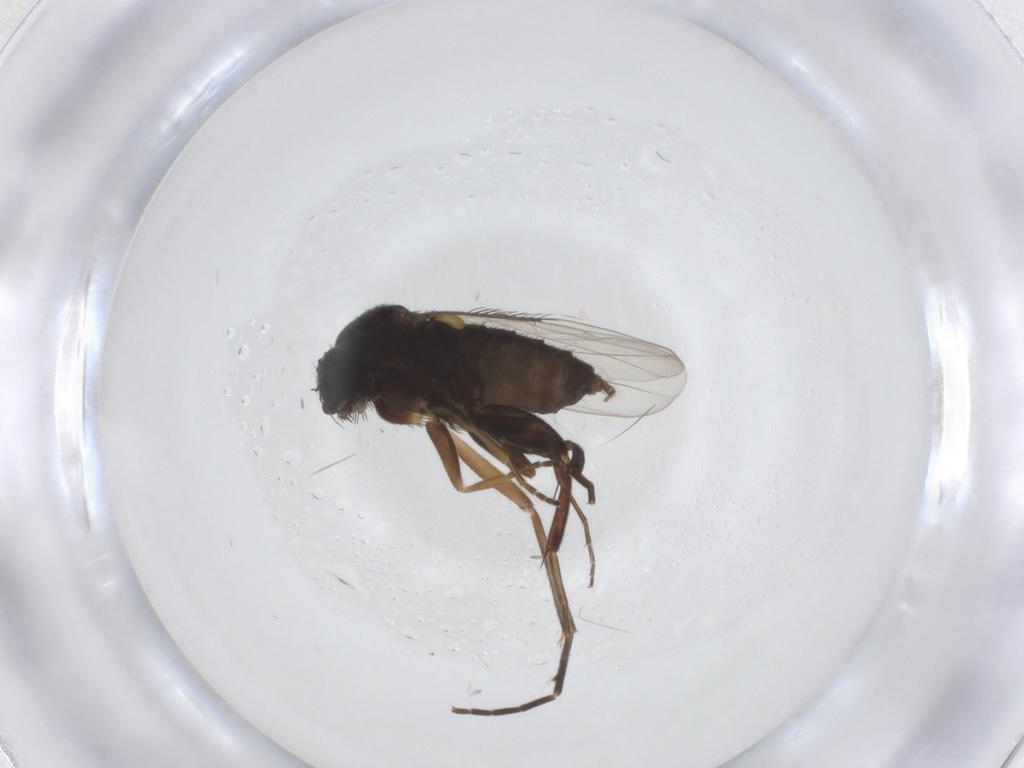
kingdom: Animalia
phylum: Arthropoda
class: Insecta
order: Diptera
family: Phoridae
